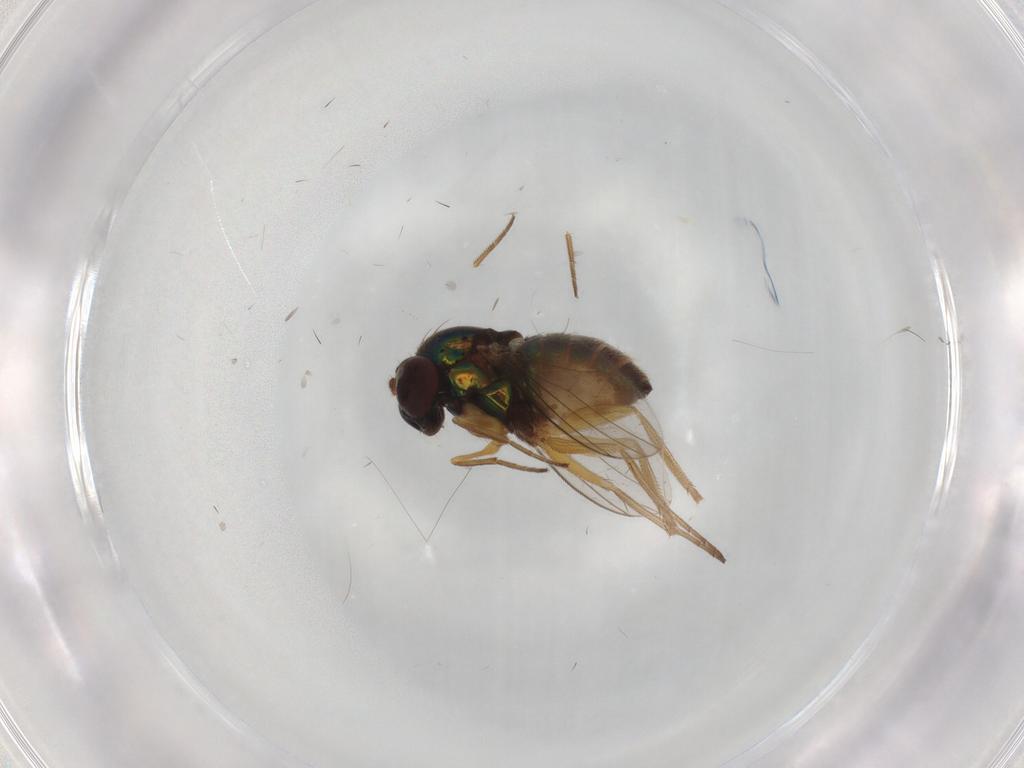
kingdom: Animalia
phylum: Arthropoda
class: Insecta
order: Diptera
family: Dolichopodidae
